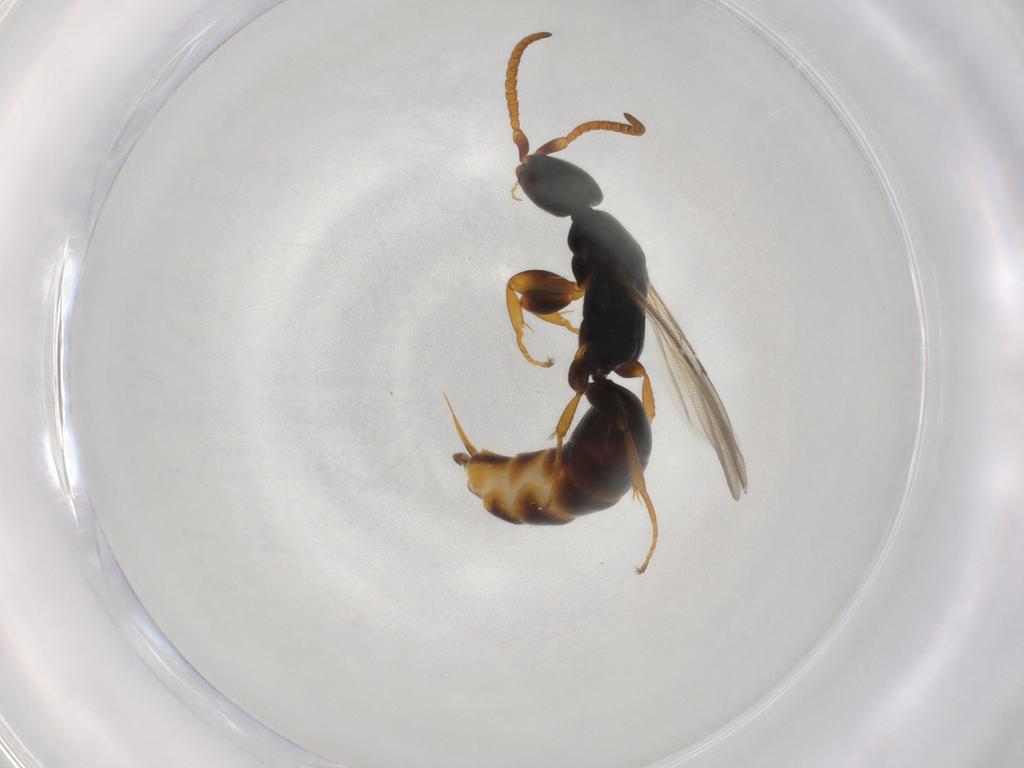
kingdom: Animalia
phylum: Arthropoda
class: Insecta
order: Hymenoptera
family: Bethylidae
